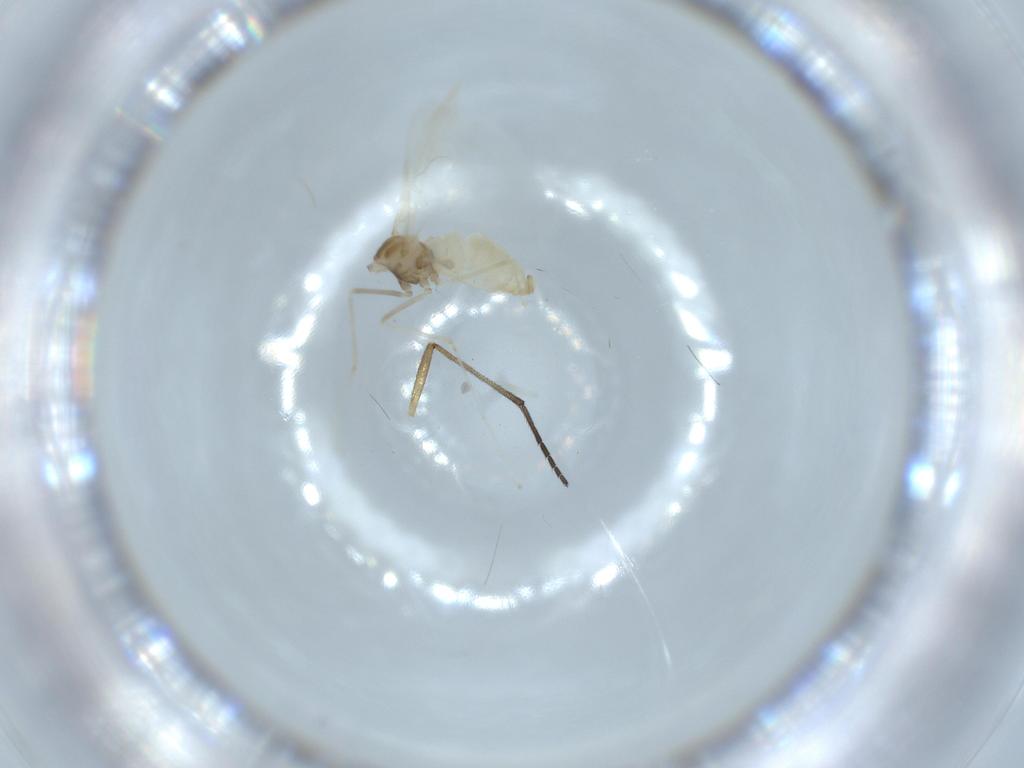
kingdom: Animalia
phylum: Arthropoda
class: Insecta
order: Diptera
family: Cecidomyiidae
